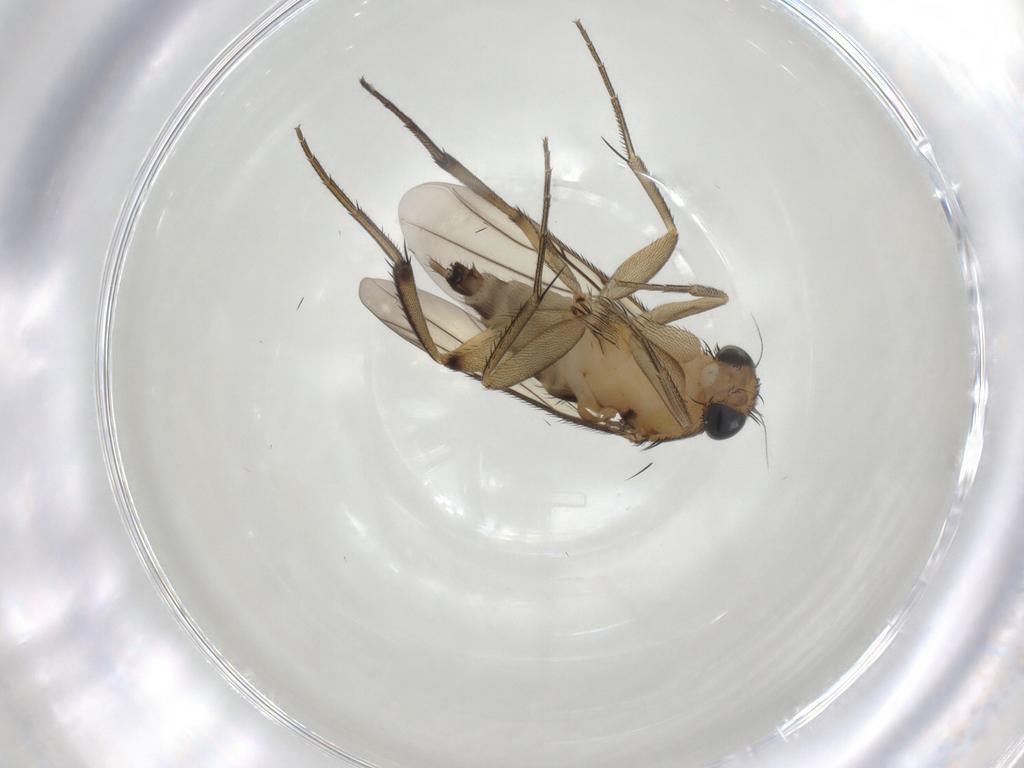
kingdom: Animalia
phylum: Arthropoda
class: Insecta
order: Diptera
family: Phoridae
